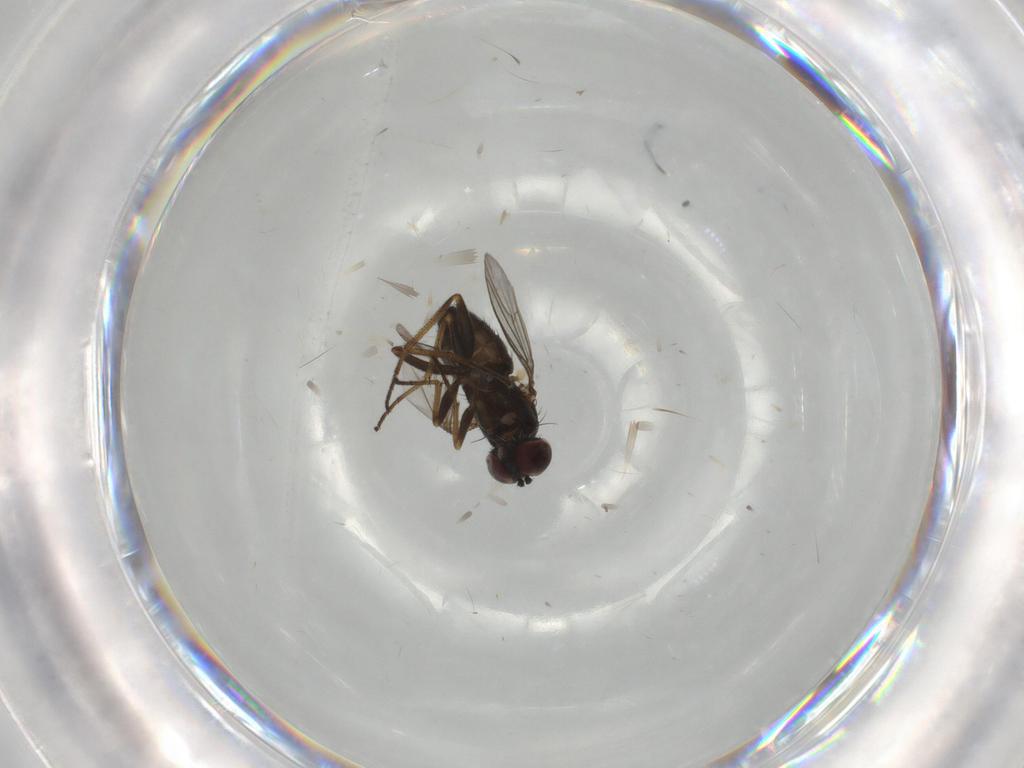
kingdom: Animalia
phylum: Arthropoda
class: Insecta
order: Diptera
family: Dolichopodidae
